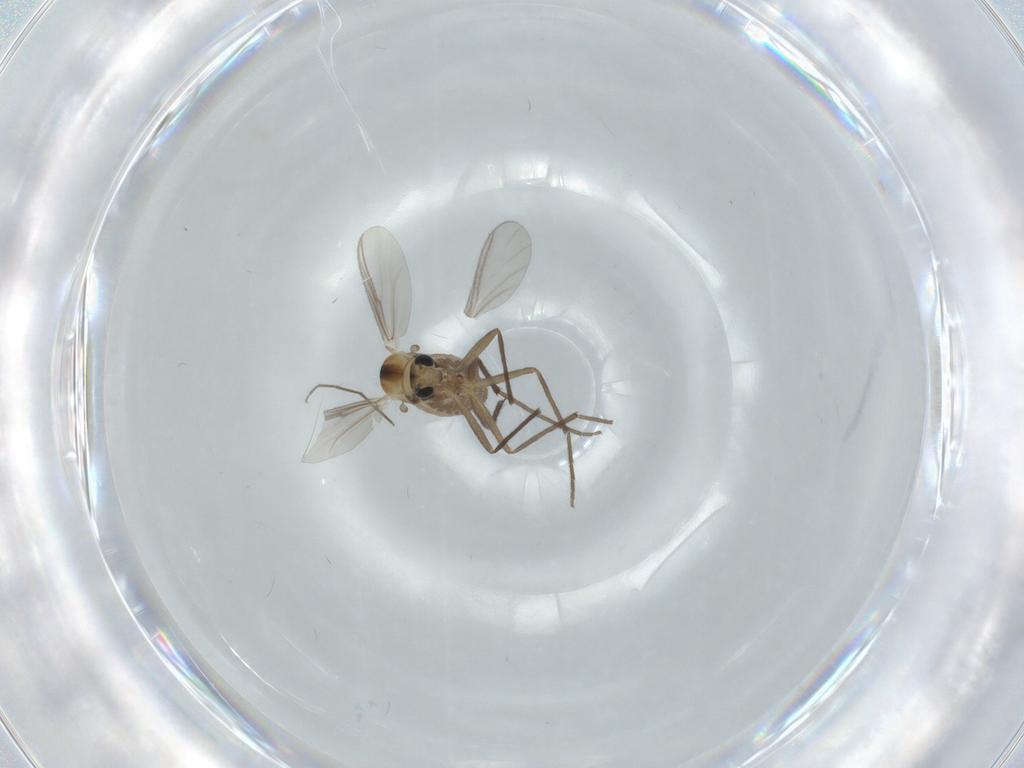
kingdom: Animalia
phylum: Arthropoda
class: Insecta
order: Diptera
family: Chironomidae
